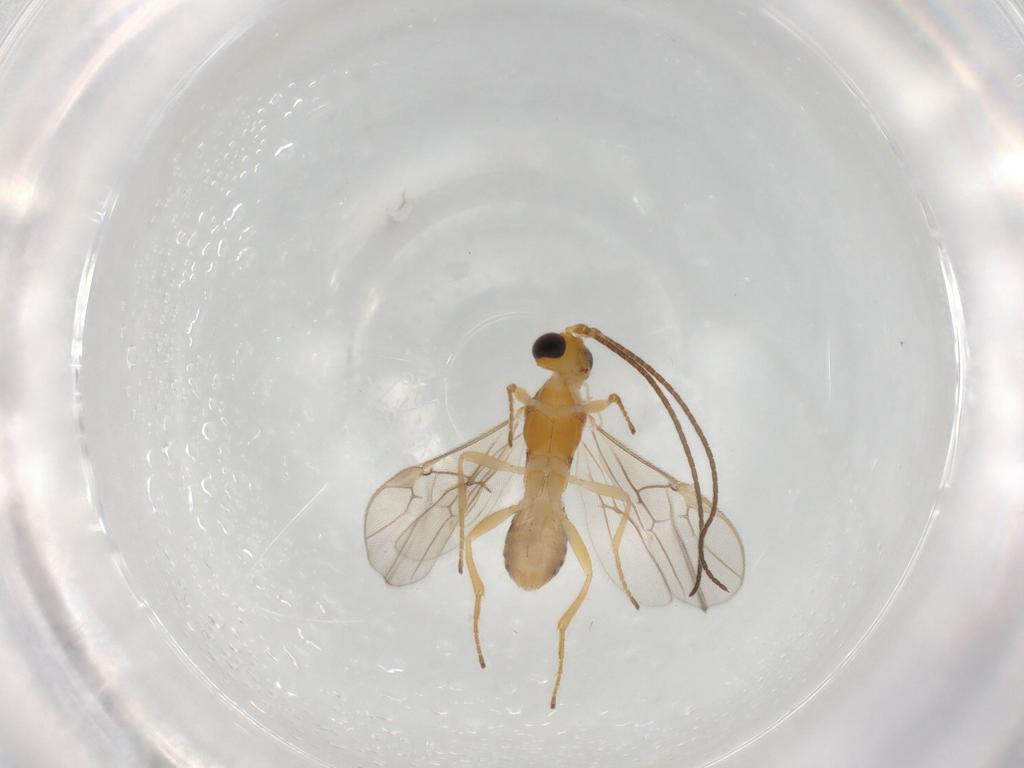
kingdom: Animalia
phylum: Arthropoda
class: Insecta
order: Hymenoptera
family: Braconidae
